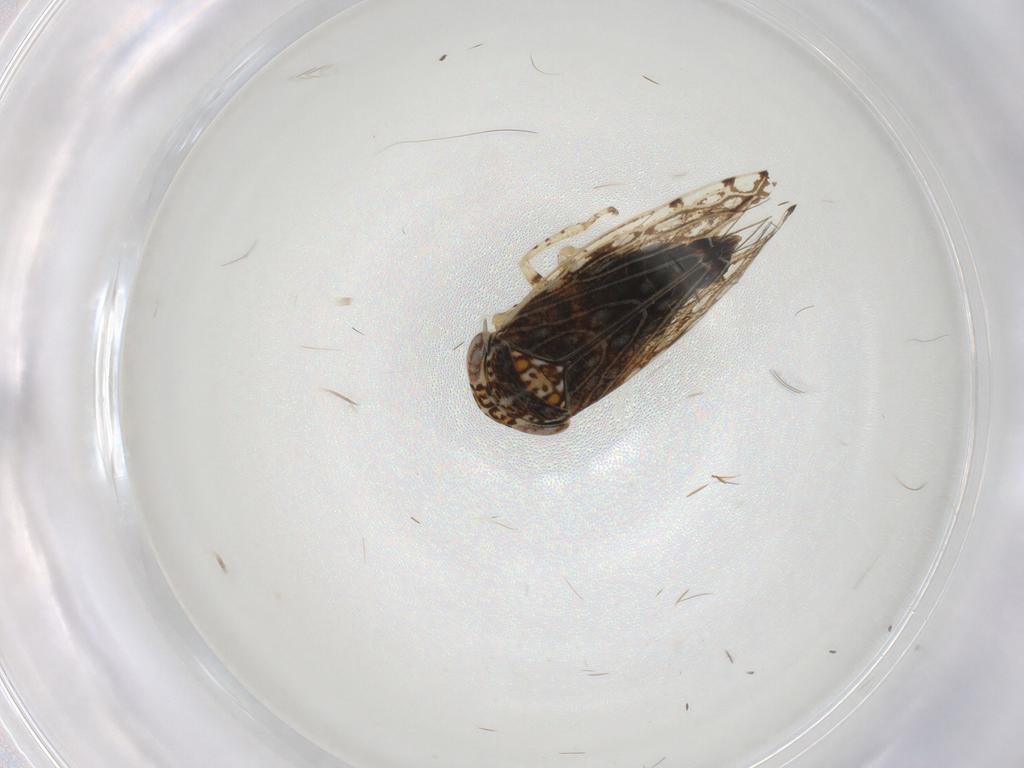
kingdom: Animalia
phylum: Arthropoda
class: Insecta
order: Hemiptera
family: Cicadellidae
